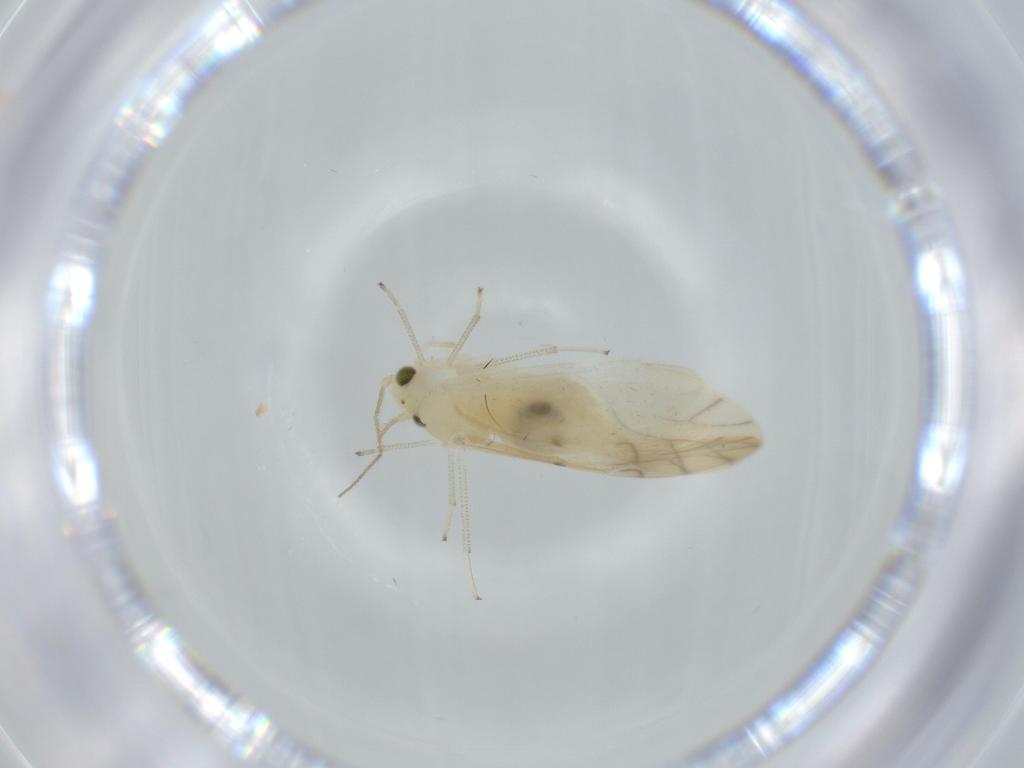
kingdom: Animalia
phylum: Arthropoda
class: Insecta
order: Psocodea
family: Caeciliusidae
